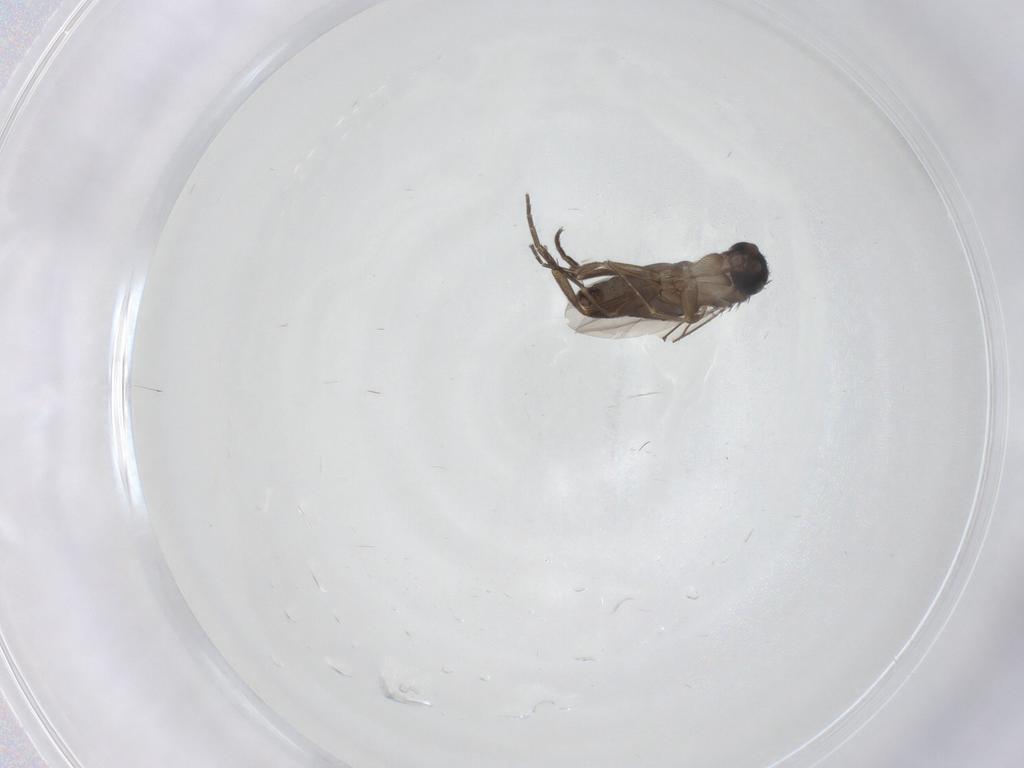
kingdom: Animalia
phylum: Arthropoda
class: Insecta
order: Diptera
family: Phoridae
